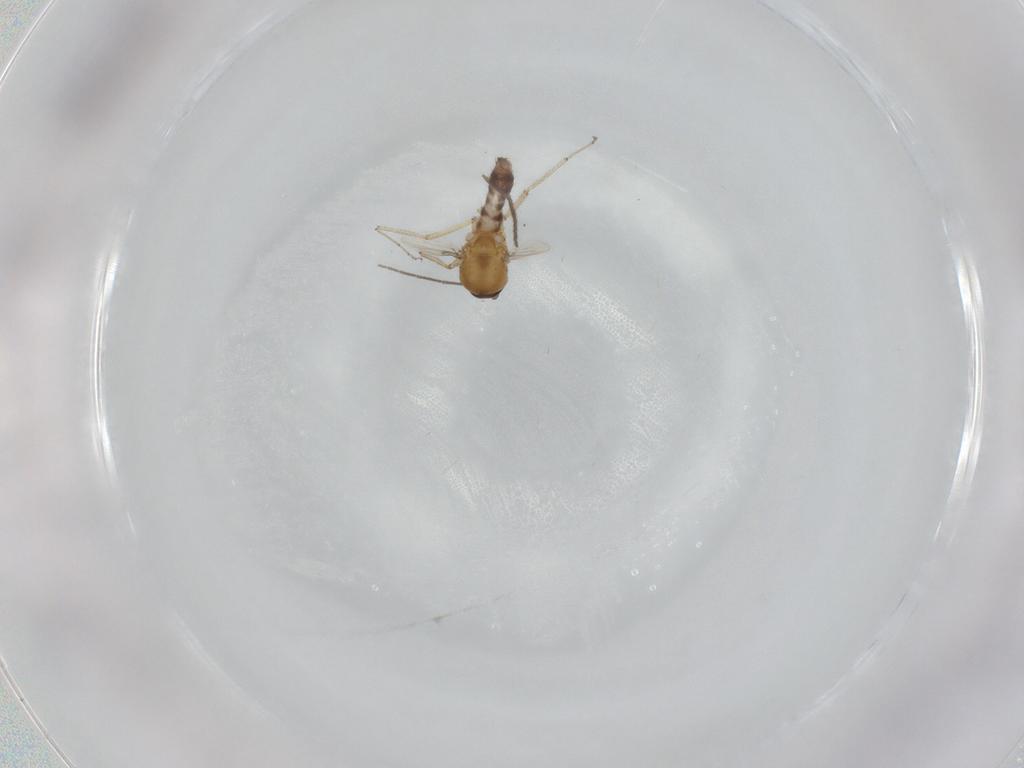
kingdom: Animalia
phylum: Arthropoda
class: Insecta
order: Diptera
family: Ceratopogonidae
